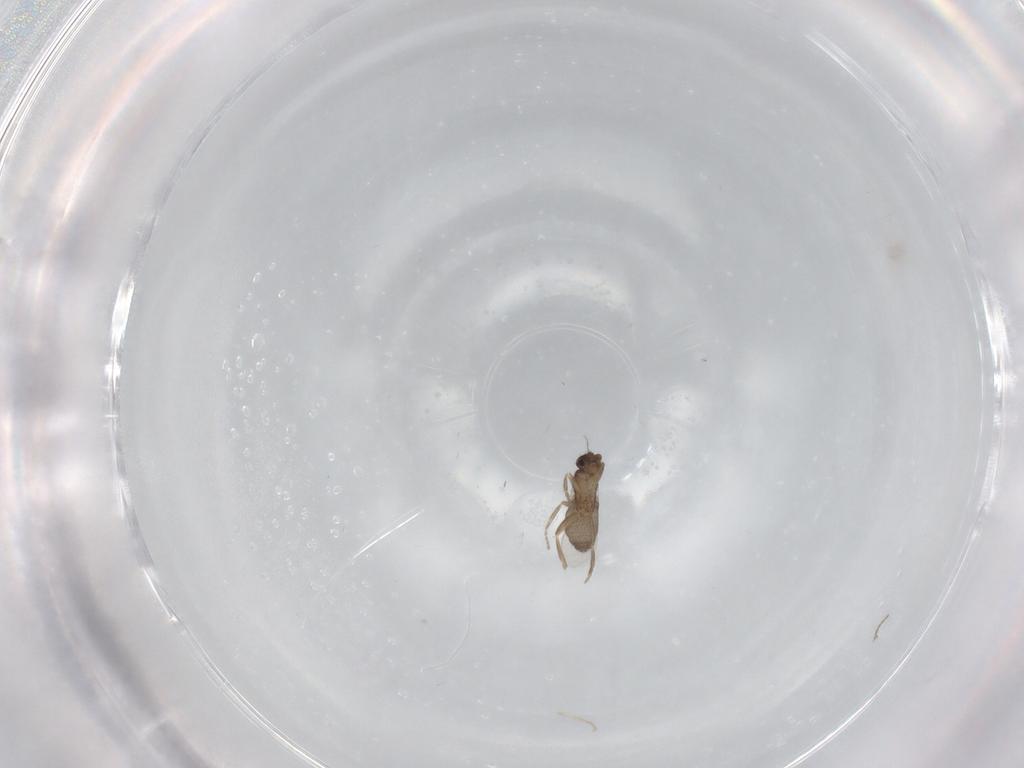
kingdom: Animalia
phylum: Arthropoda
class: Insecta
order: Diptera
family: Phoridae
